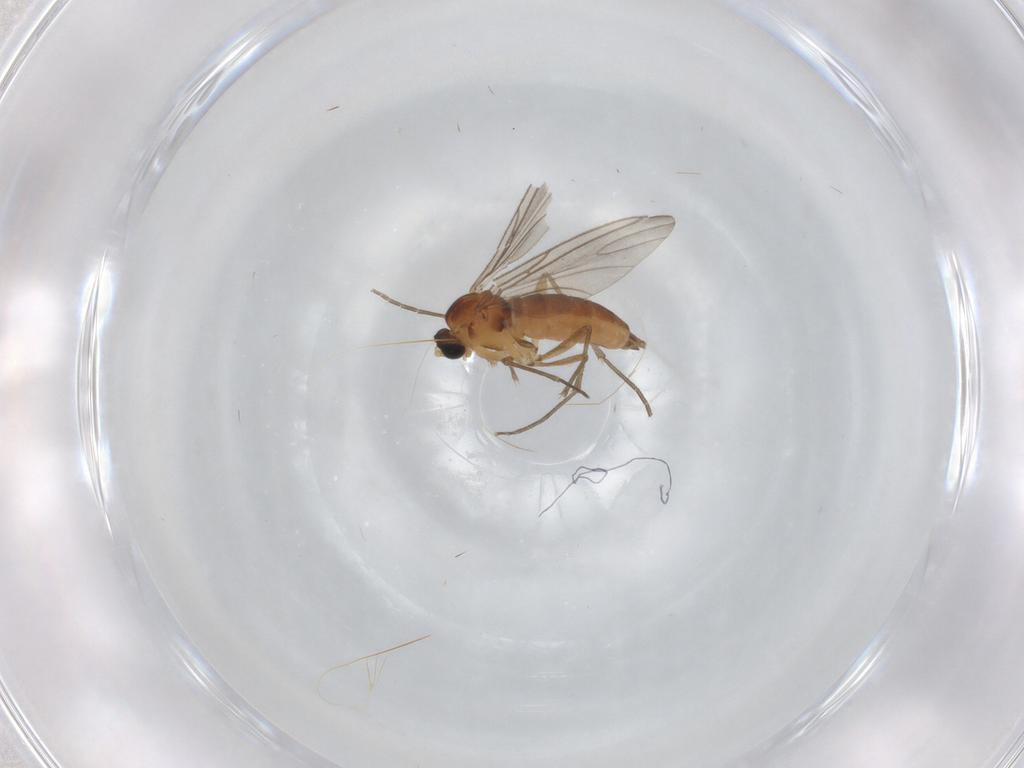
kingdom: Animalia
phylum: Arthropoda
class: Insecta
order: Diptera
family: Sciaridae
